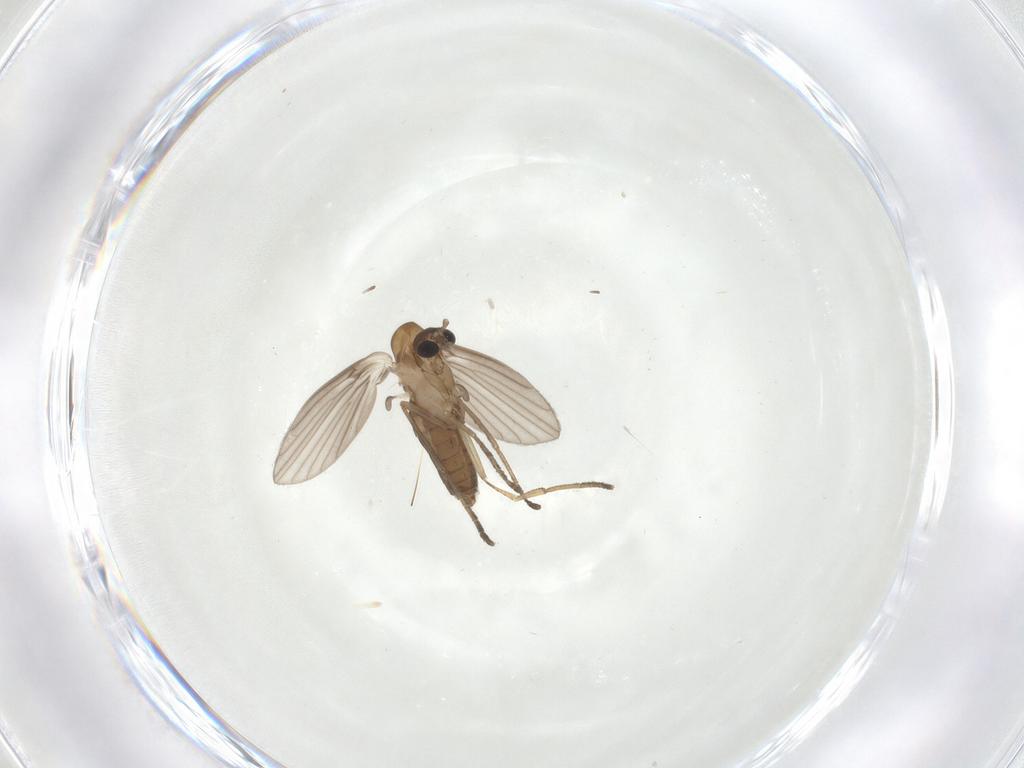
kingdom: Animalia
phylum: Arthropoda
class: Insecta
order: Diptera
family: Psychodidae
